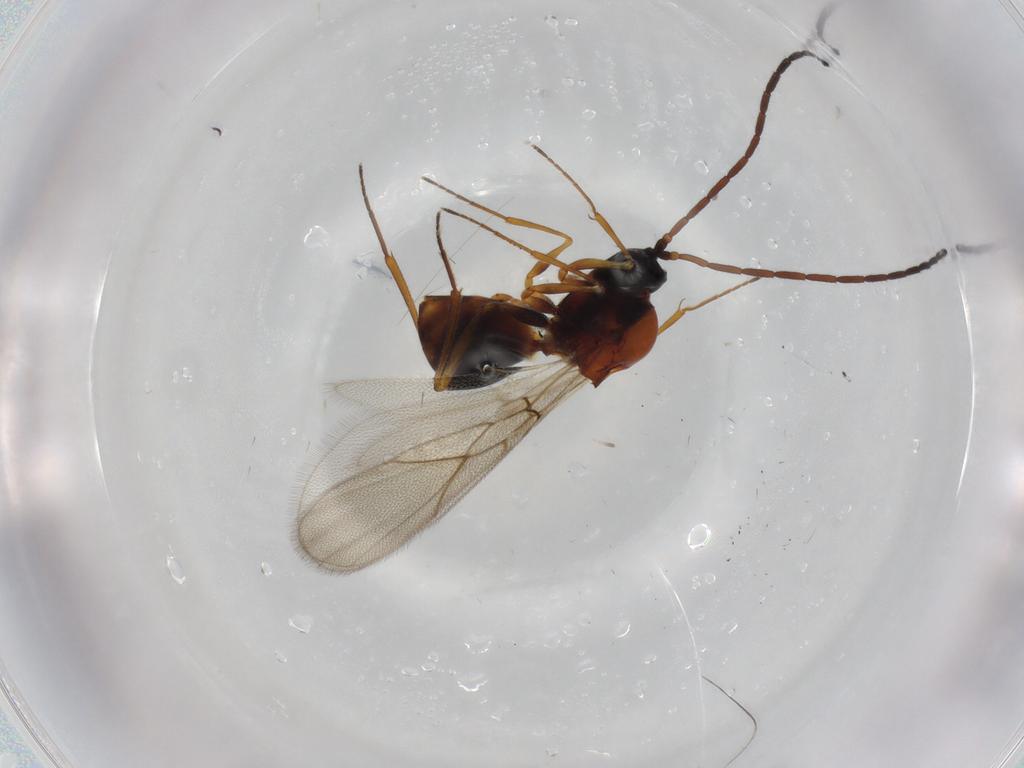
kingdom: Animalia
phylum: Arthropoda
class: Insecta
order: Hymenoptera
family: Figitidae
